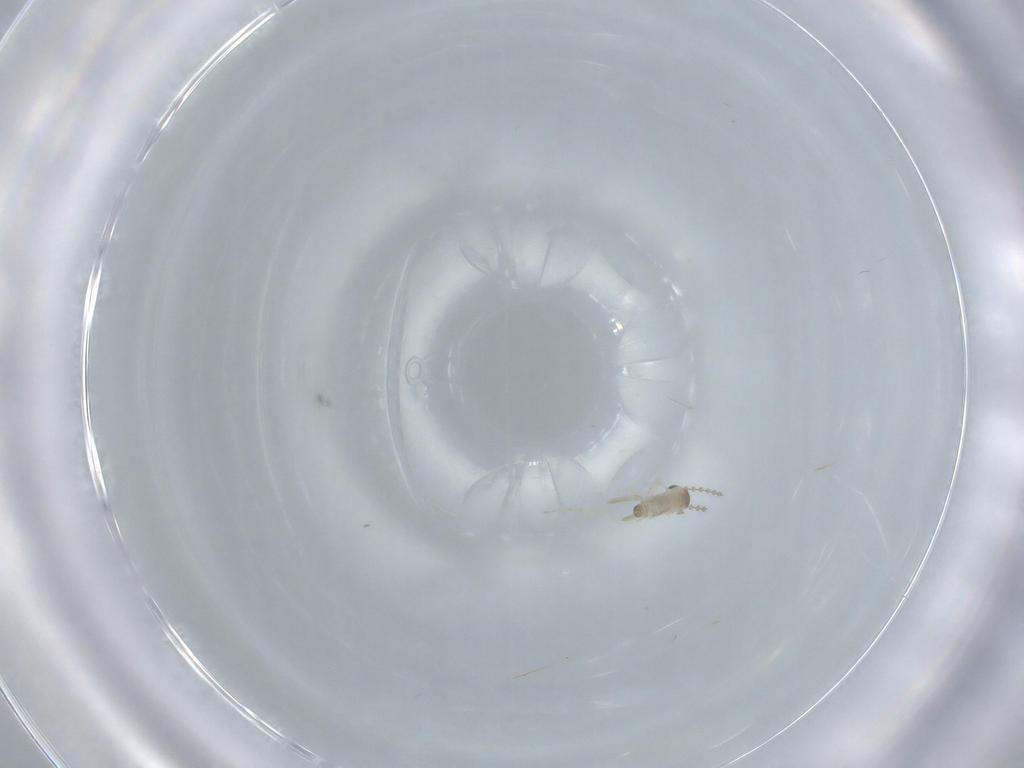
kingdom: Animalia
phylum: Arthropoda
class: Insecta
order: Diptera
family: Cecidomyiidae
